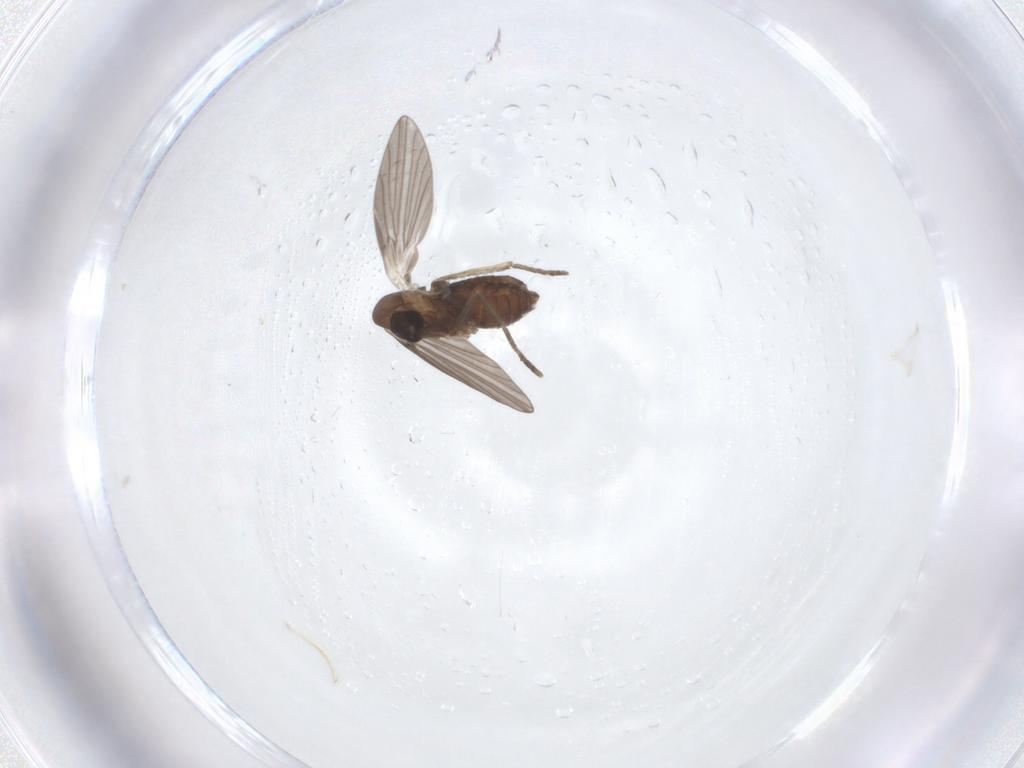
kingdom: Animalia
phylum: Arthropoda
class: Insecta
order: Diptera
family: Psychodidae
